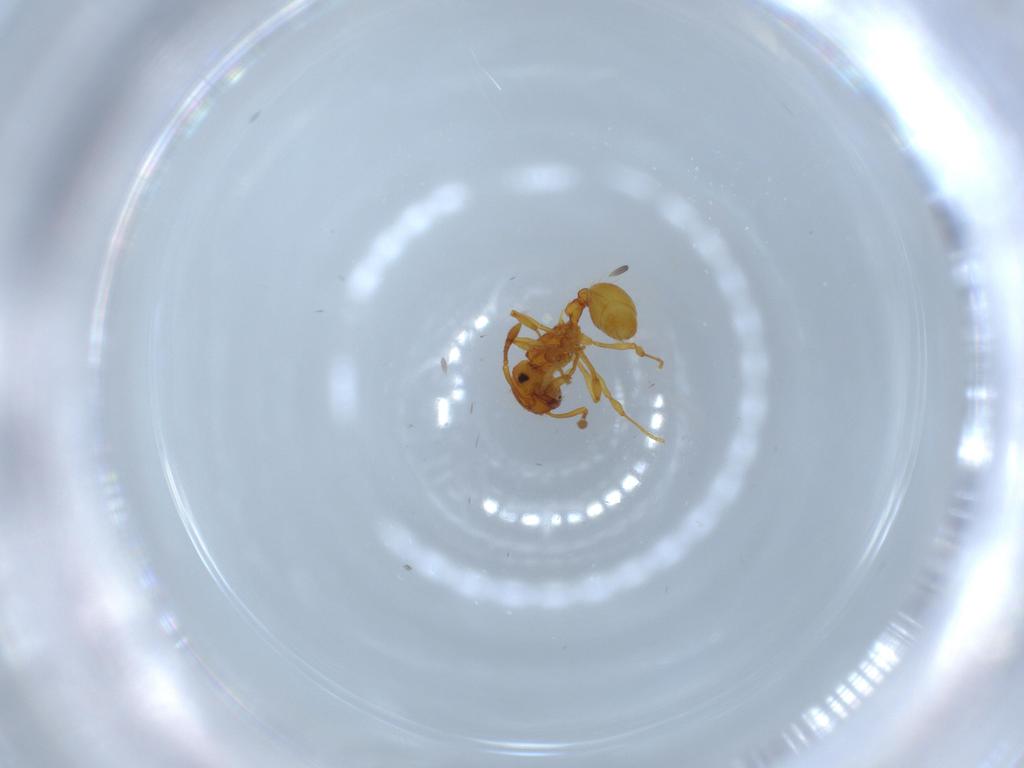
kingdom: Animalia
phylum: Arthropoda
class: Insecta
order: Hymenoptera
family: Formicidae
